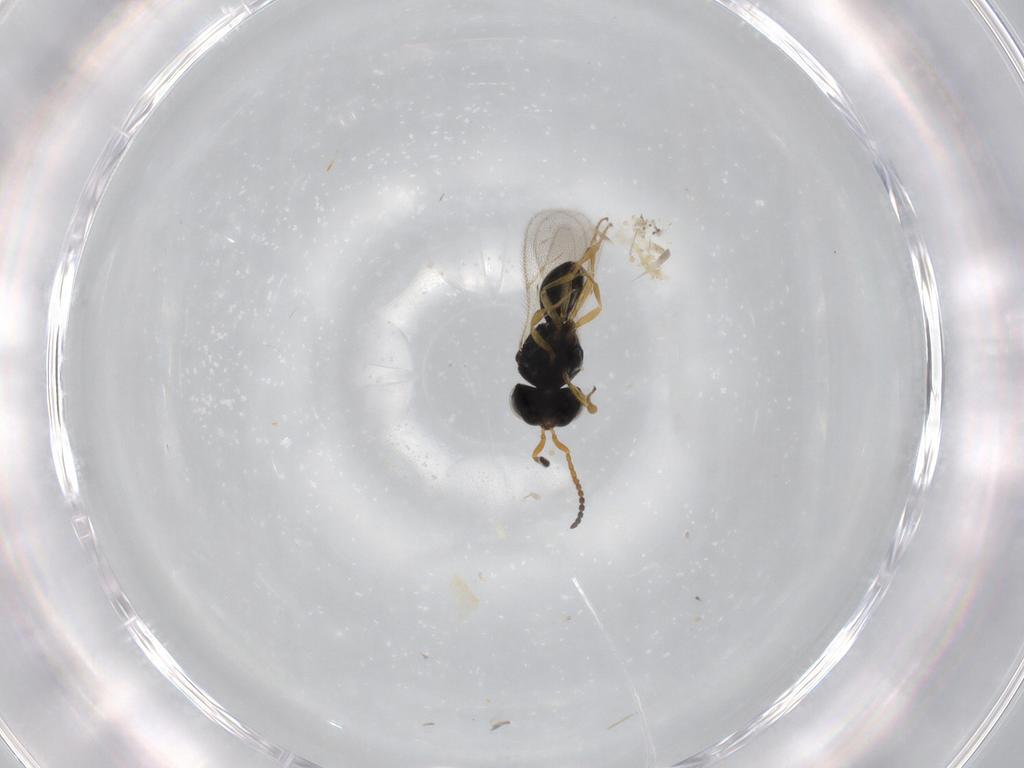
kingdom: Animalia
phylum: Arthropoda
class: Insecta
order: Hymenoptera
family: Scelionidae
